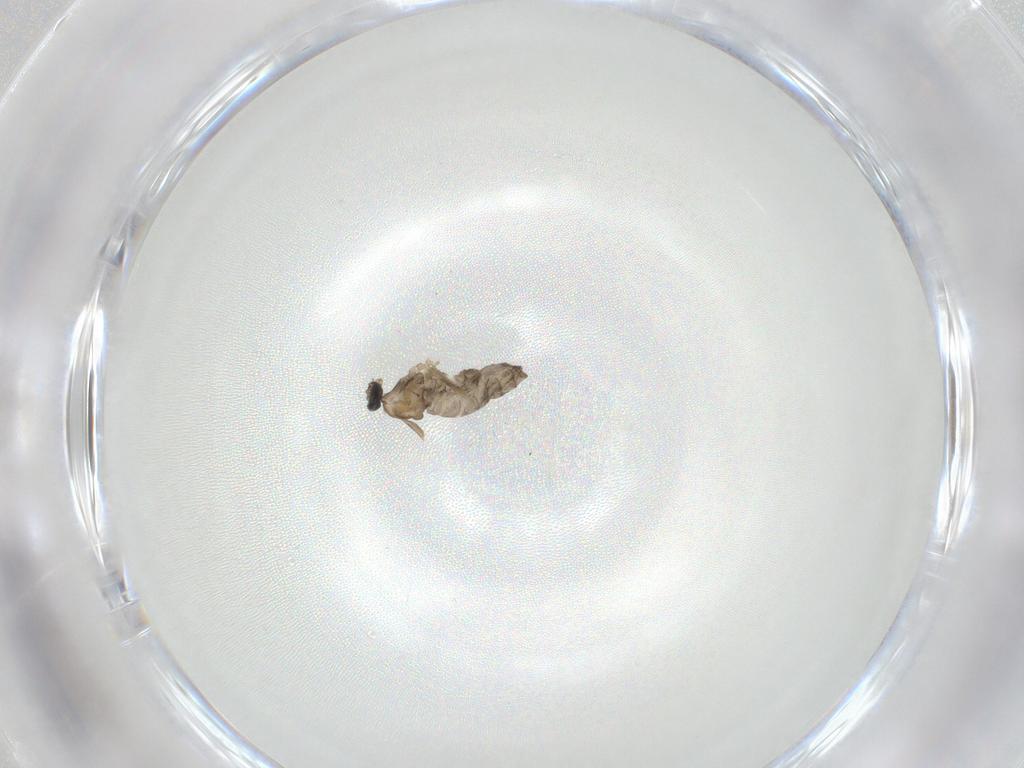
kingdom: Animalia
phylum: Arthropoda
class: Insecta
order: Diptera
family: Cecidomyiidae
